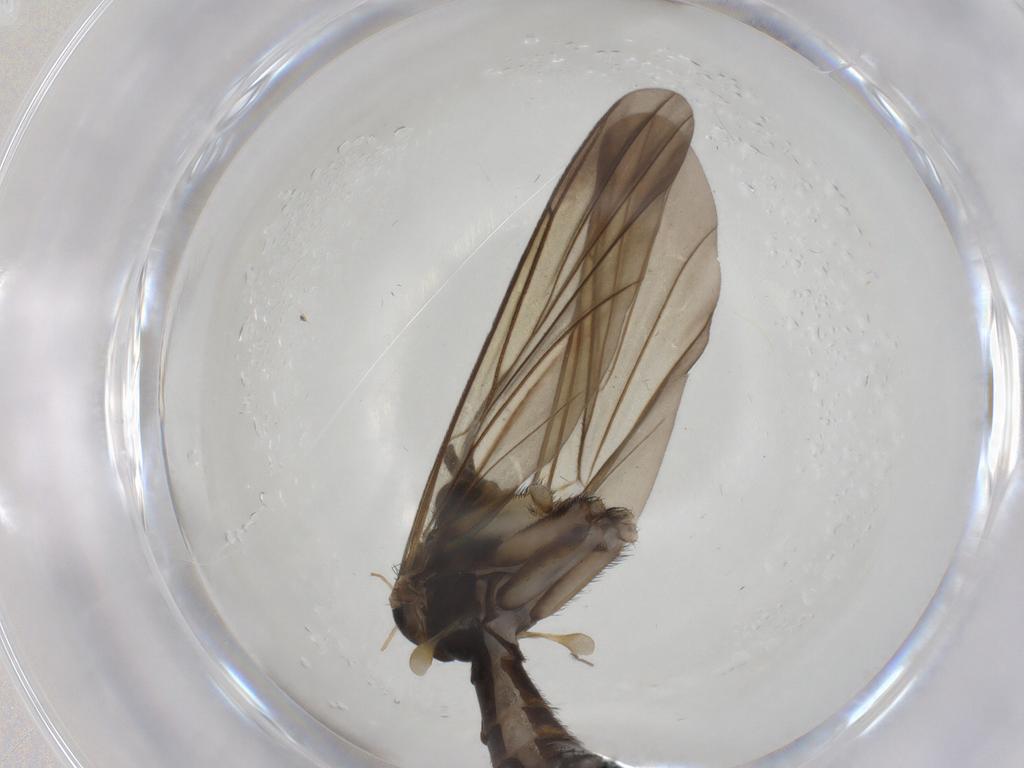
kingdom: Animalia
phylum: Arthropoda
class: Insecta
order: Diptera
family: Keroplatidae
